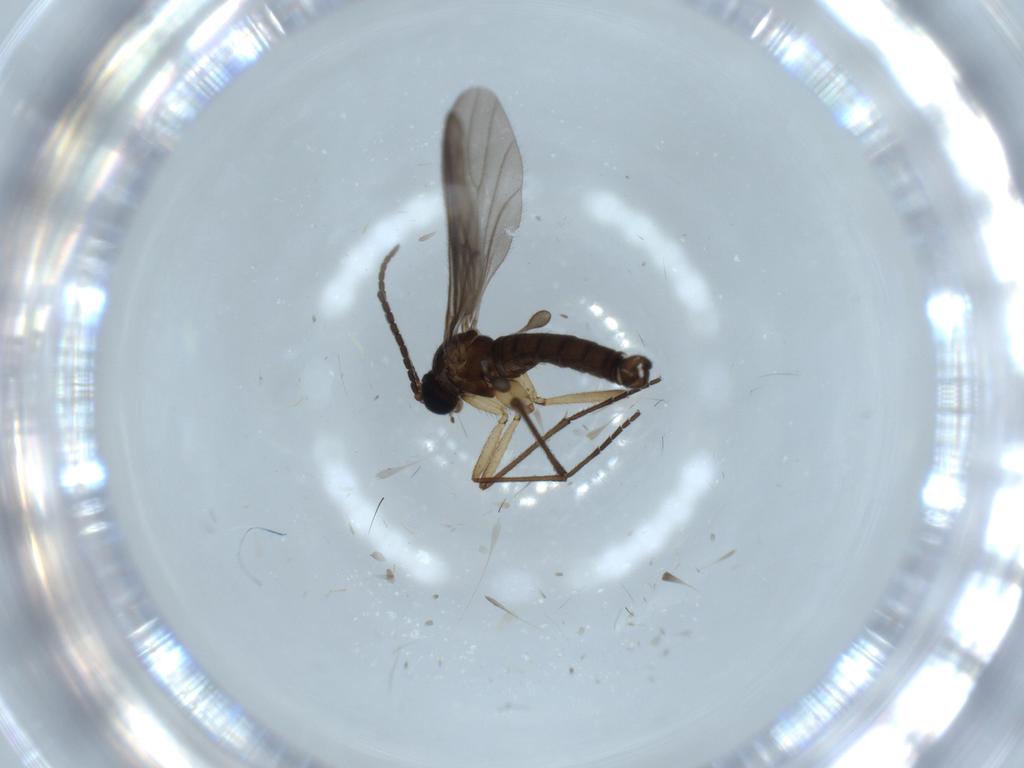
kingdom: Animalia
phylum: Arthropoda
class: Insecta
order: Diptera
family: Sciaridae
